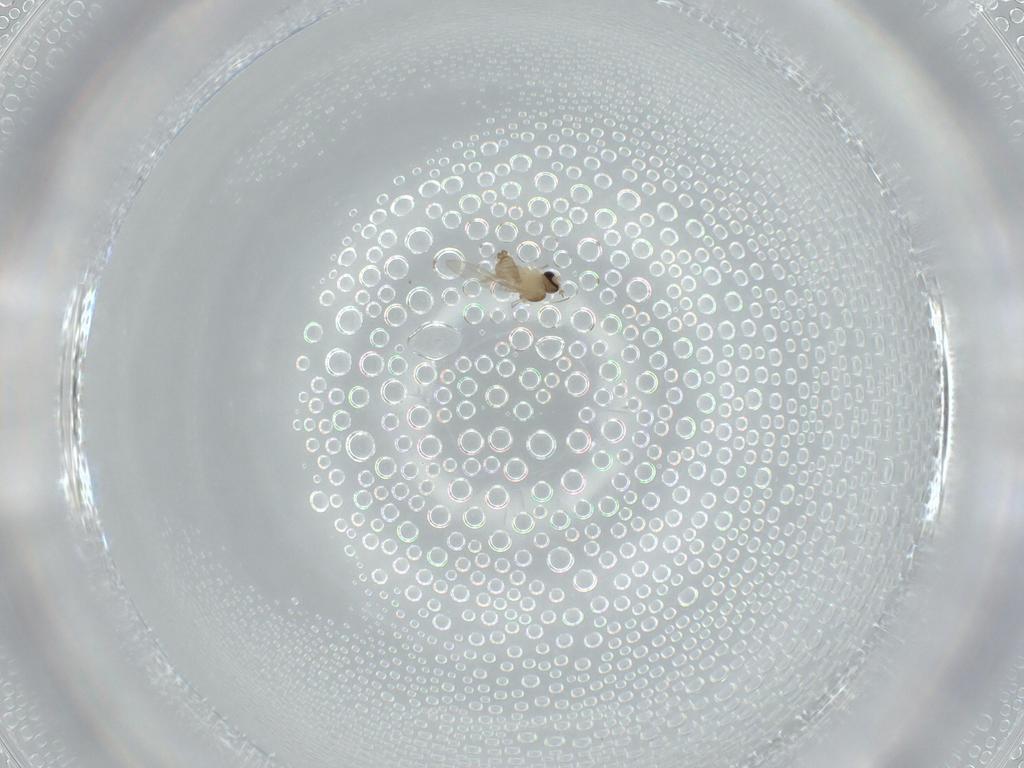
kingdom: Animalia
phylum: Arthropoda
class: Insecta
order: Diptera
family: Cecidomyiidae
